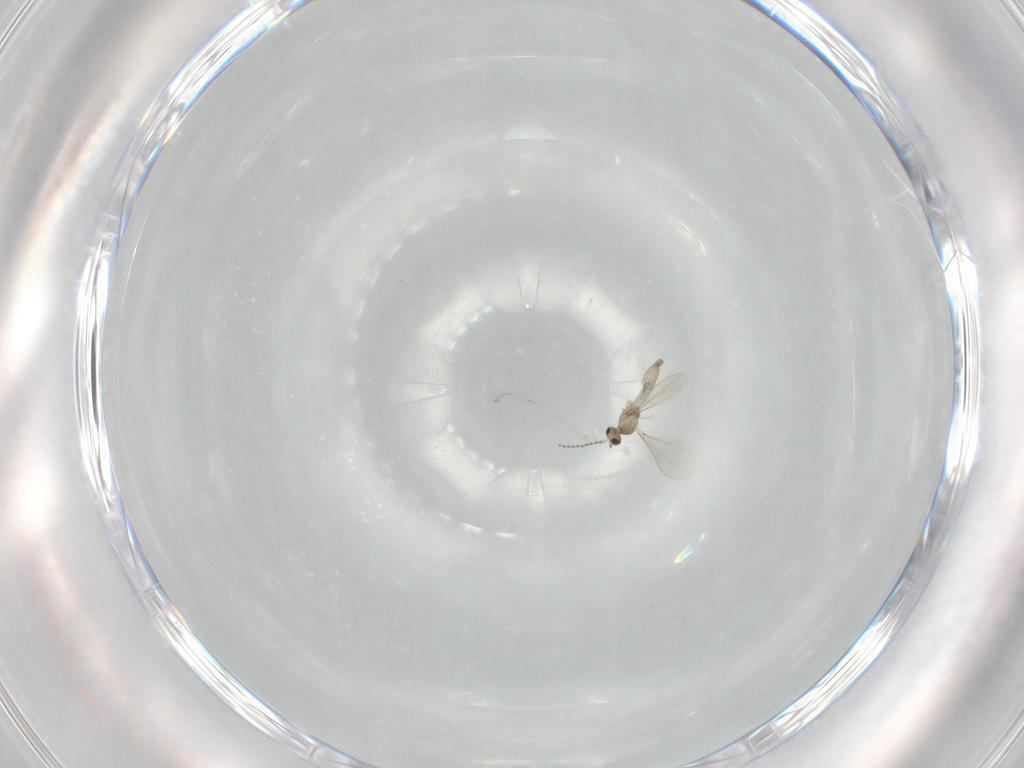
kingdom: Animalia
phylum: Arthropoda
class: Insecta
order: Diptera
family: Cecidomyiidae
